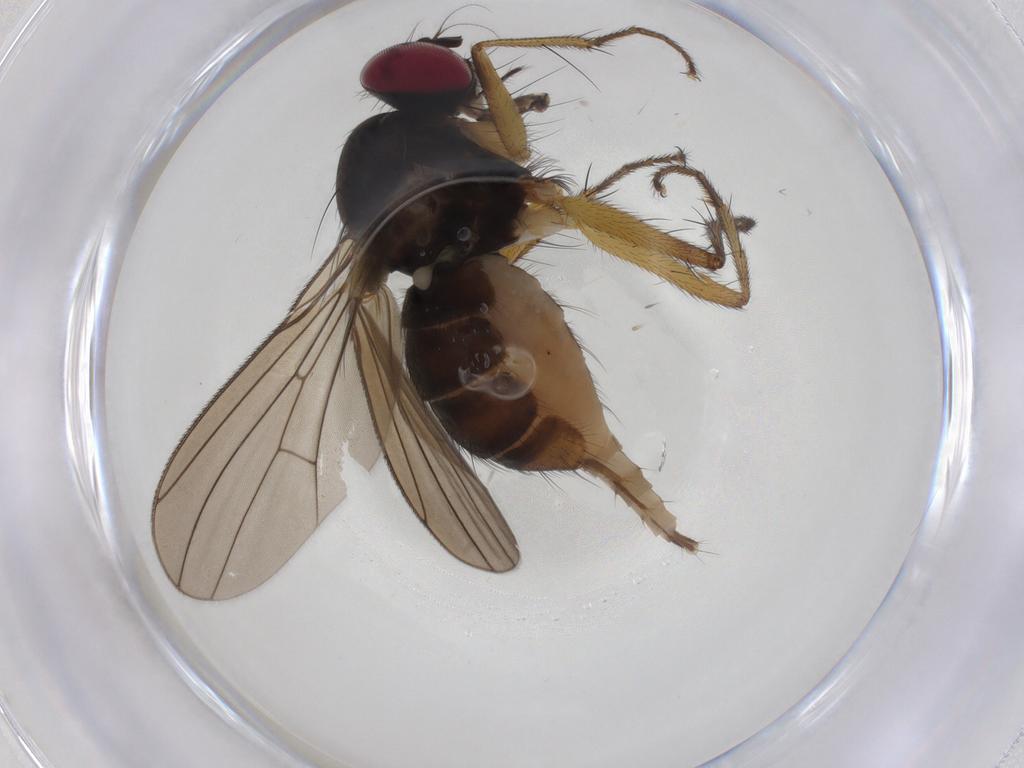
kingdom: Animalia
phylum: Arthropoda
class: Insecta
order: Diptera
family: Anthomyiidae
